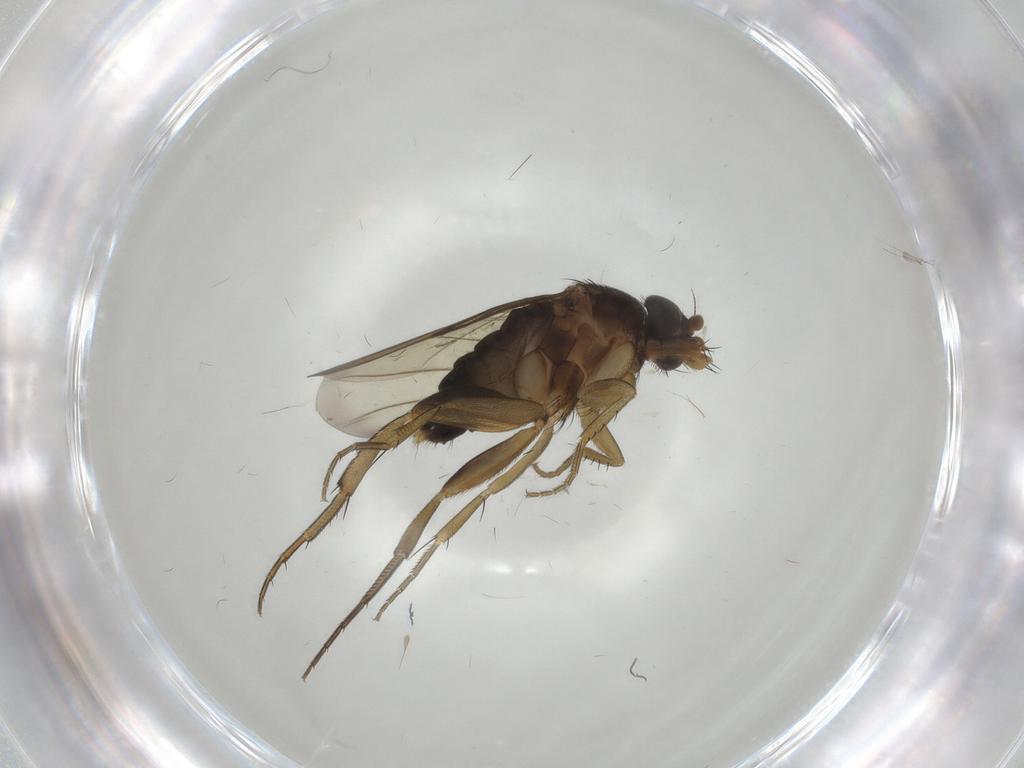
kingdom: Animalia
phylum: Arthropoda
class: Insecta
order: Diptera
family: Phoridae
